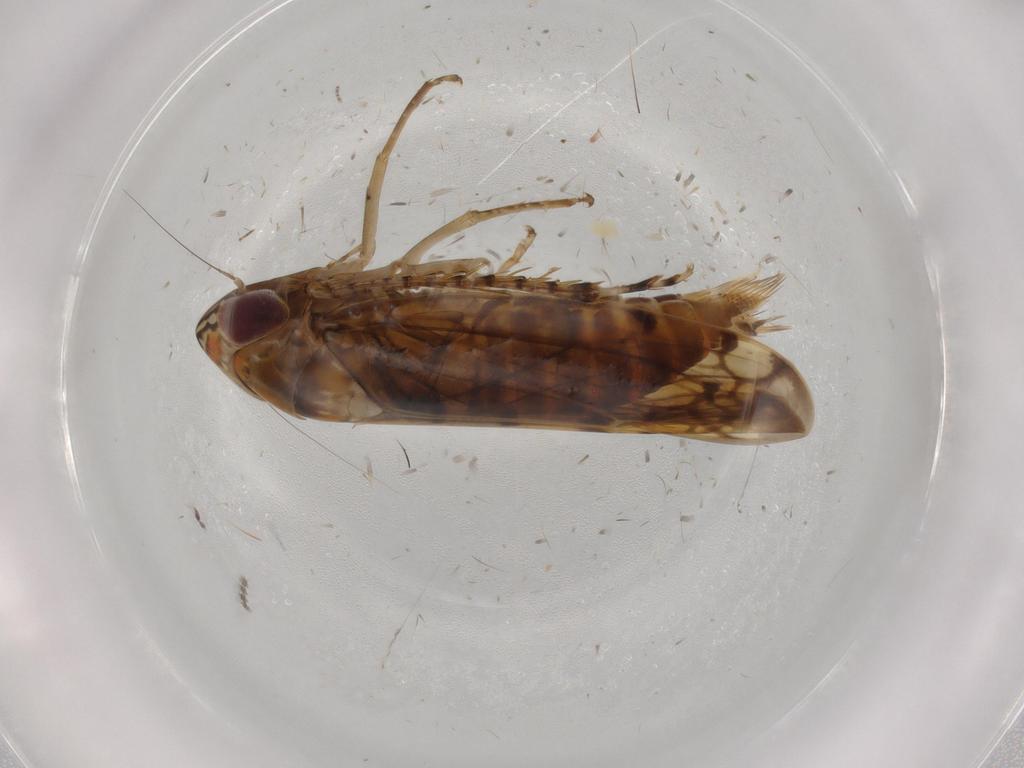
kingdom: Animalia
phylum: Arthropoda
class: Insecta
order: Hemiptera
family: Cicadellidae
